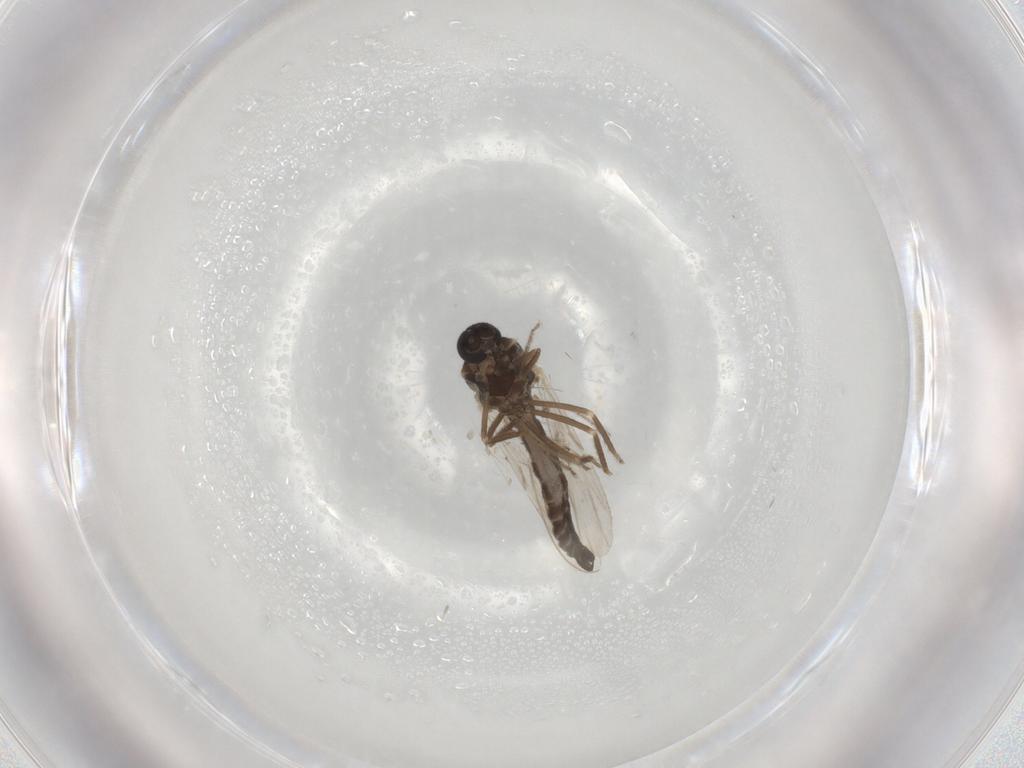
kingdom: Animalia
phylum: Arthropoda
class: Insecta
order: Diptera
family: Ceratopogonidae
